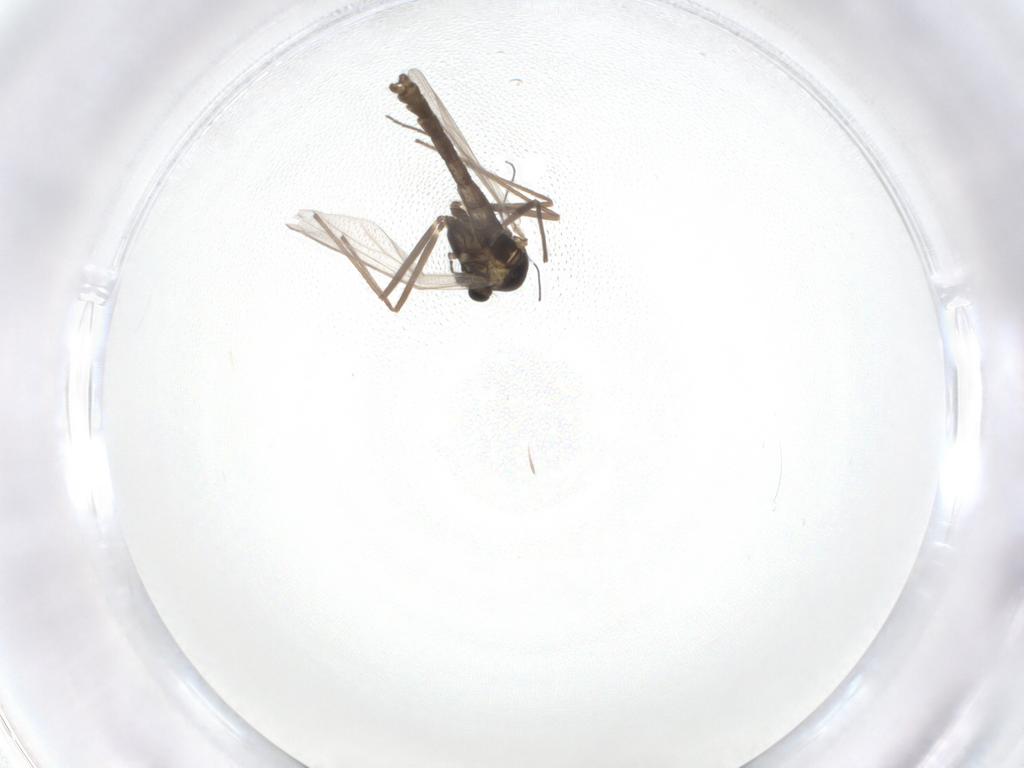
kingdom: Animalia
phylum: Arthropoda
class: Insecta
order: Diptera
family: Chironomidae
